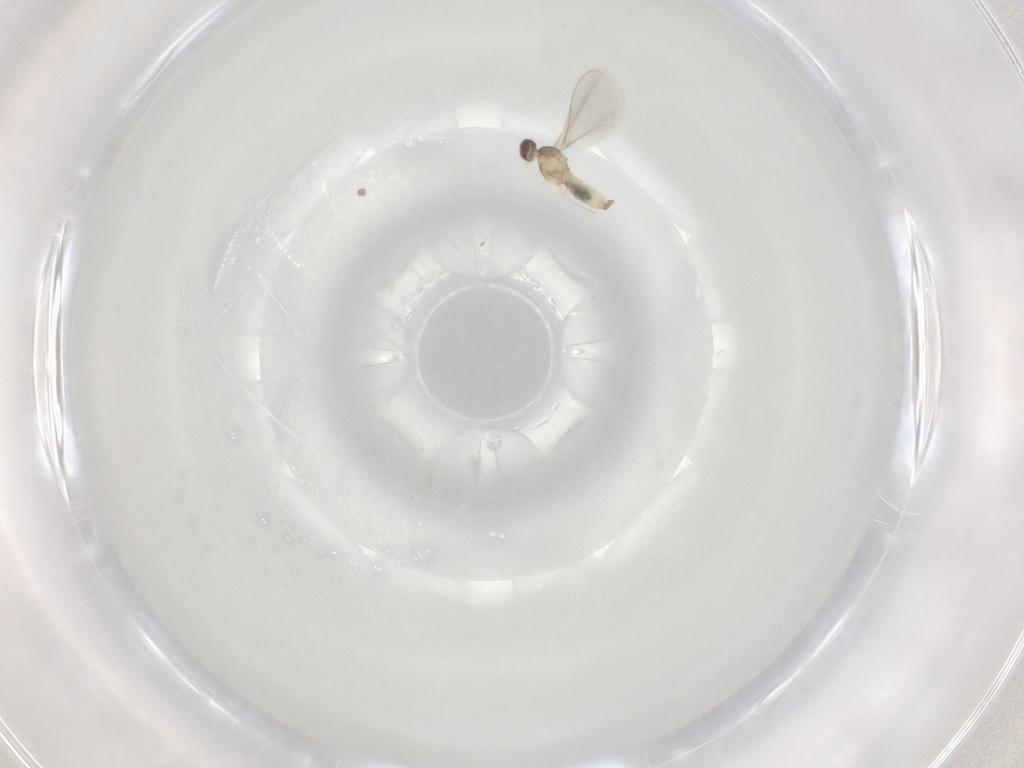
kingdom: Animalia
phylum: Arthropoda
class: Insecta
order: Diptera
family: Cecidomyiidae
